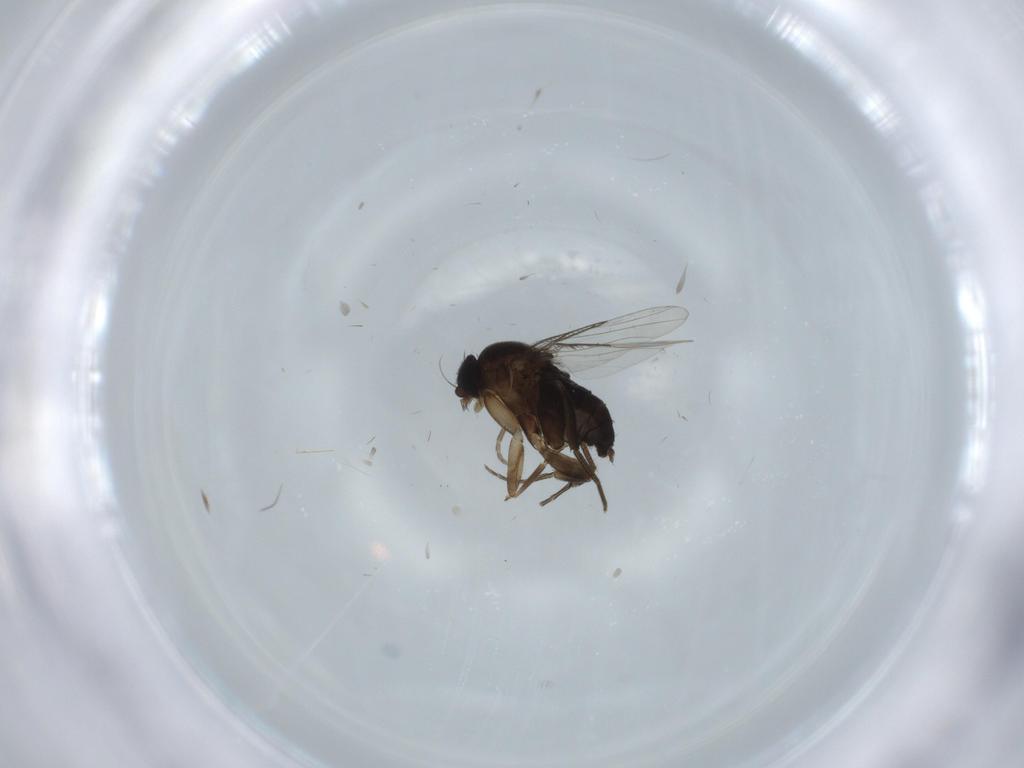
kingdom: Animalia
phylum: Arthropoda
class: Insecta
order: Diptera
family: Phoridae
